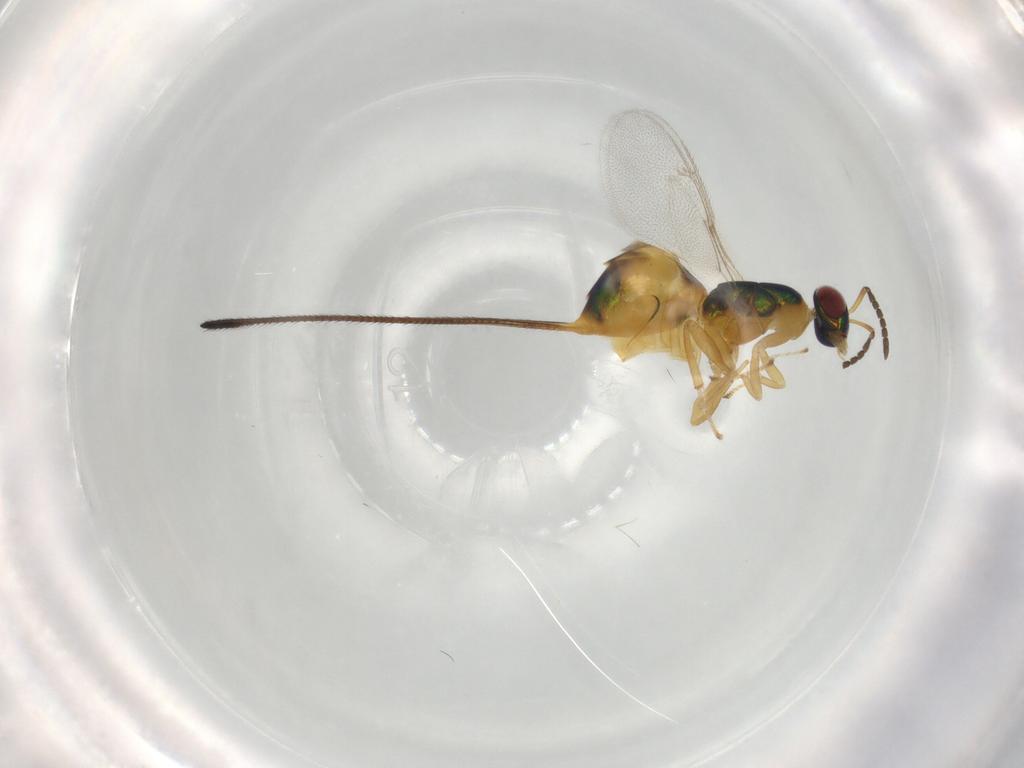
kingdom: Animalia
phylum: Arthropoda
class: Insecta
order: Hymenoptera
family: Pteromalidae
